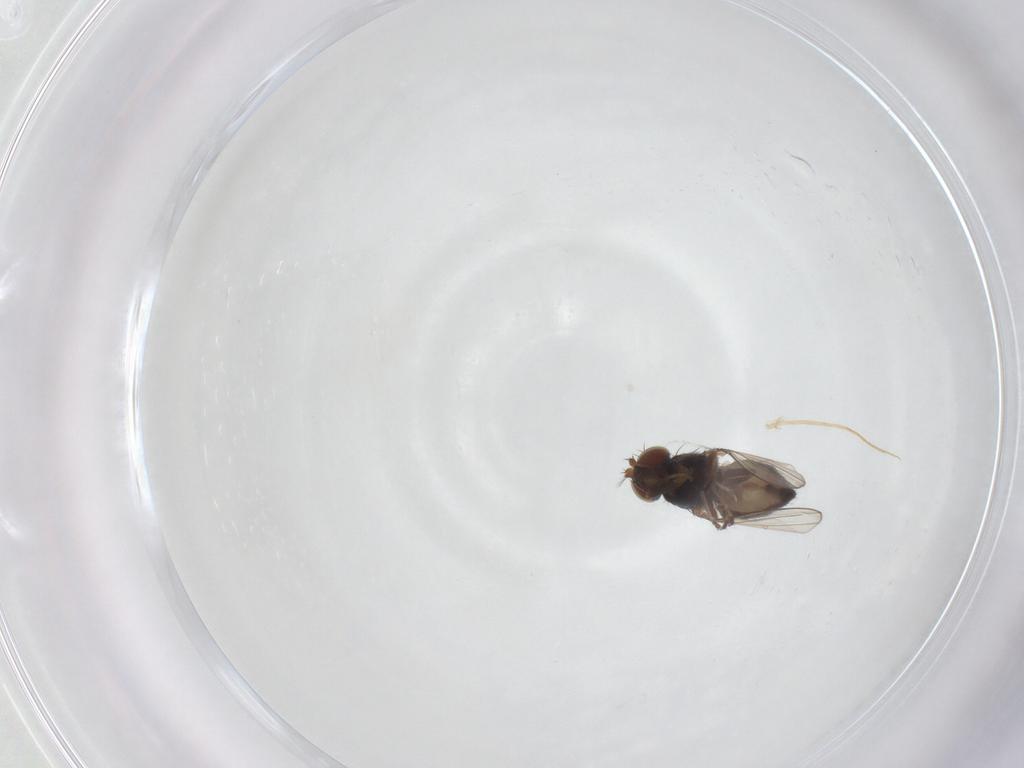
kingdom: Animalia
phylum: Arthropoda
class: Insecta
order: Diptera
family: Ephydridae
